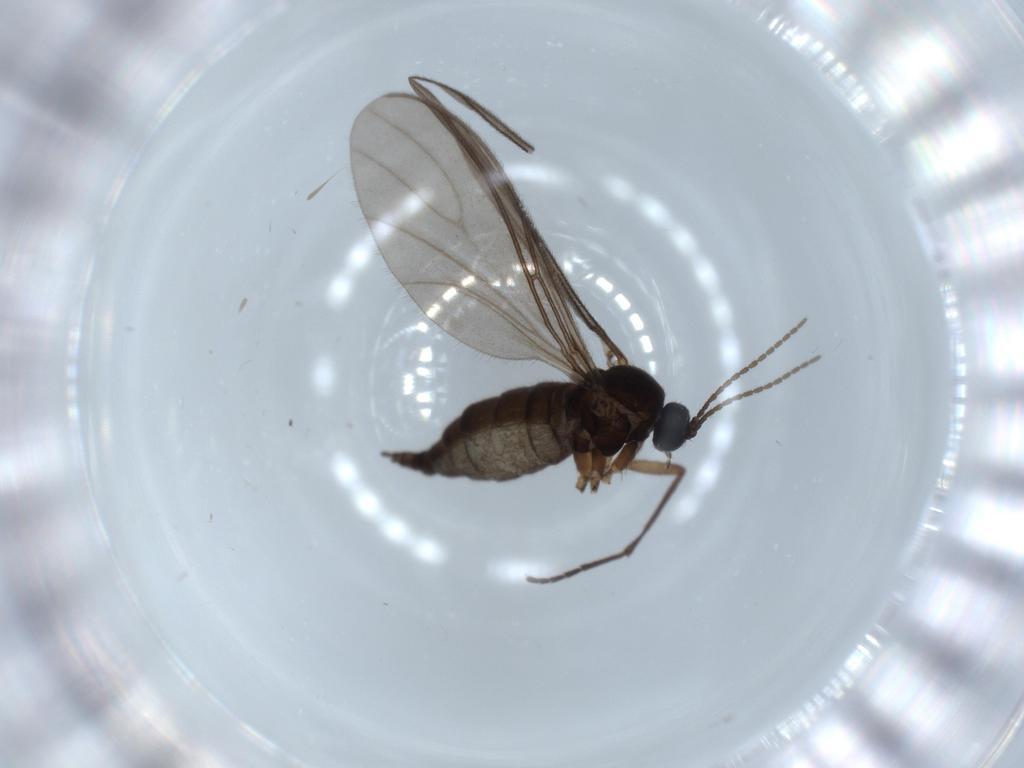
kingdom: Animalia
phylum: Arthropoda
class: Insecta
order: Diptera
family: Sciaridae
